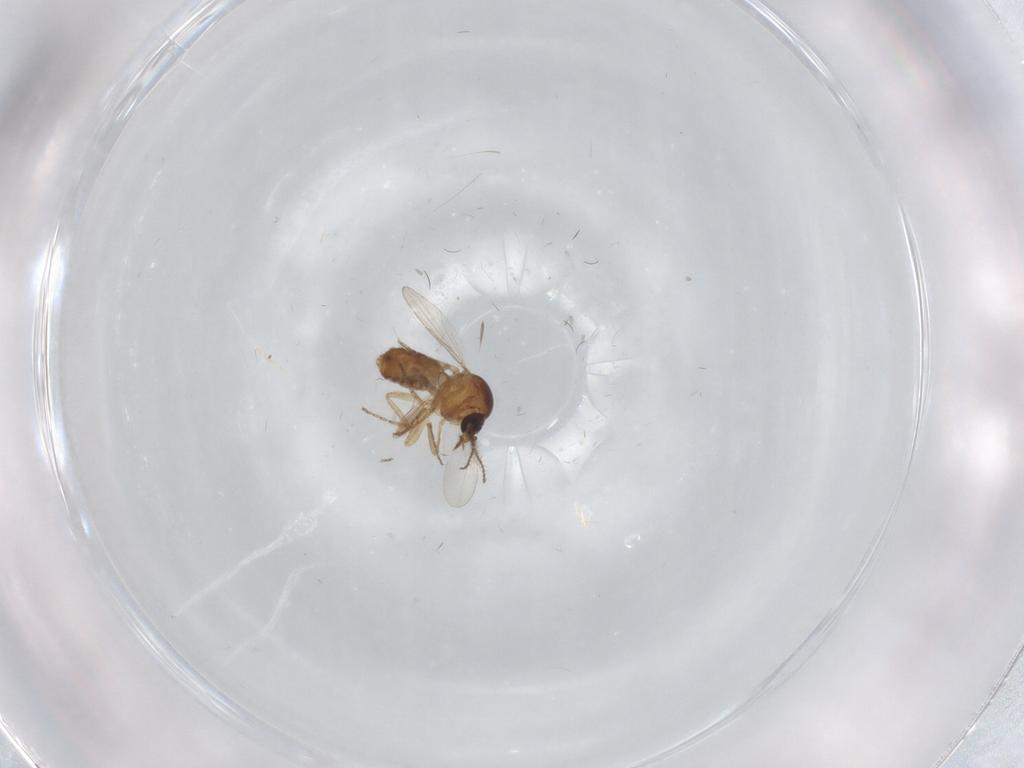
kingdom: Animalia
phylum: Arthropoda
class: Insecta
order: Diptera
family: Ceratopogonidae
